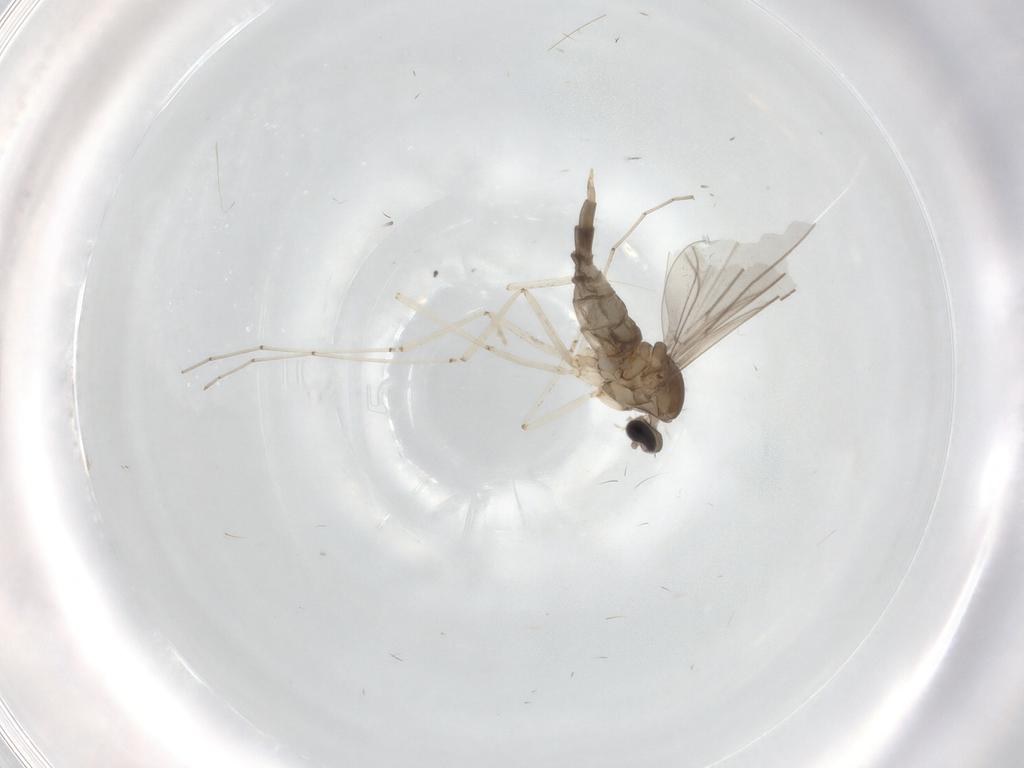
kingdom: Animalia
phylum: Arthropoda
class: Insecta
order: Diptera
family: Cecidomyiidae
